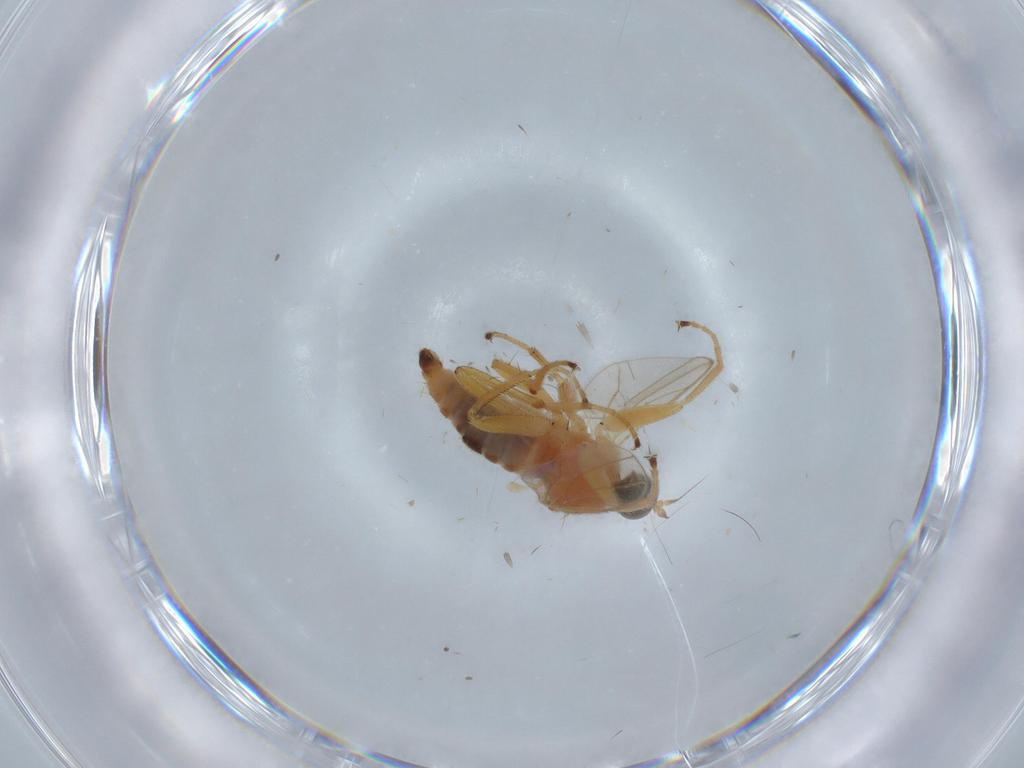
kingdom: Animalia
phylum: Arthropoda
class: Insecta
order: Diptera
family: Hybotidae
